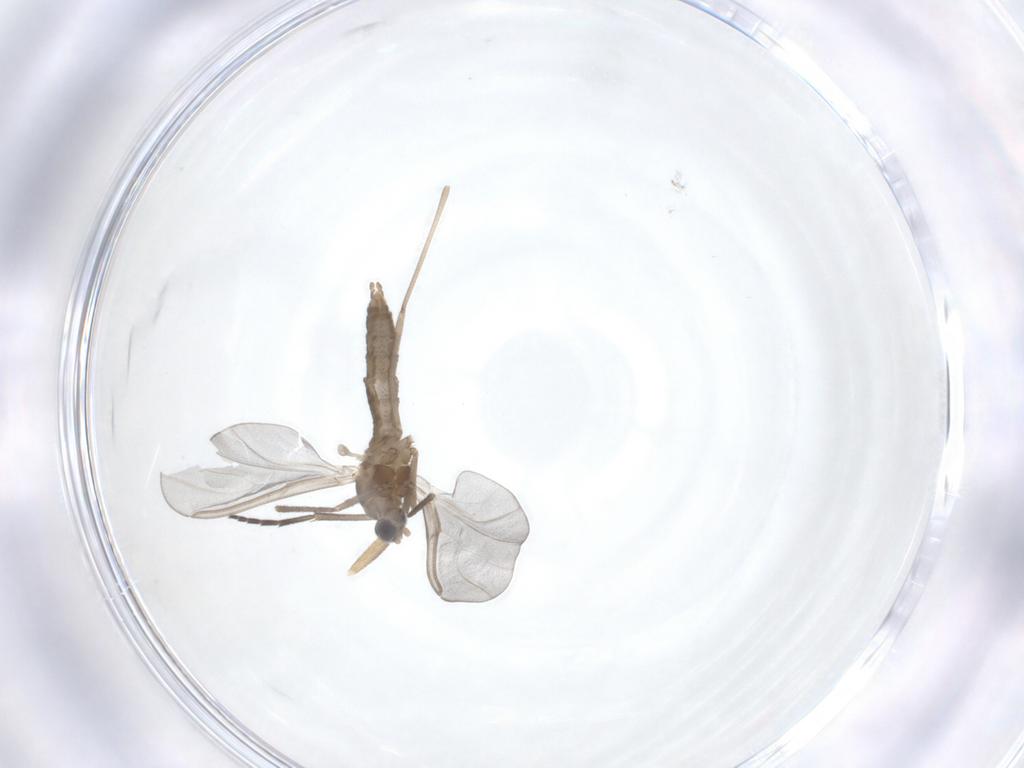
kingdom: Animalia
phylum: Arthropoda
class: Insecta
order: Diptera
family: Cecidomyiidae
